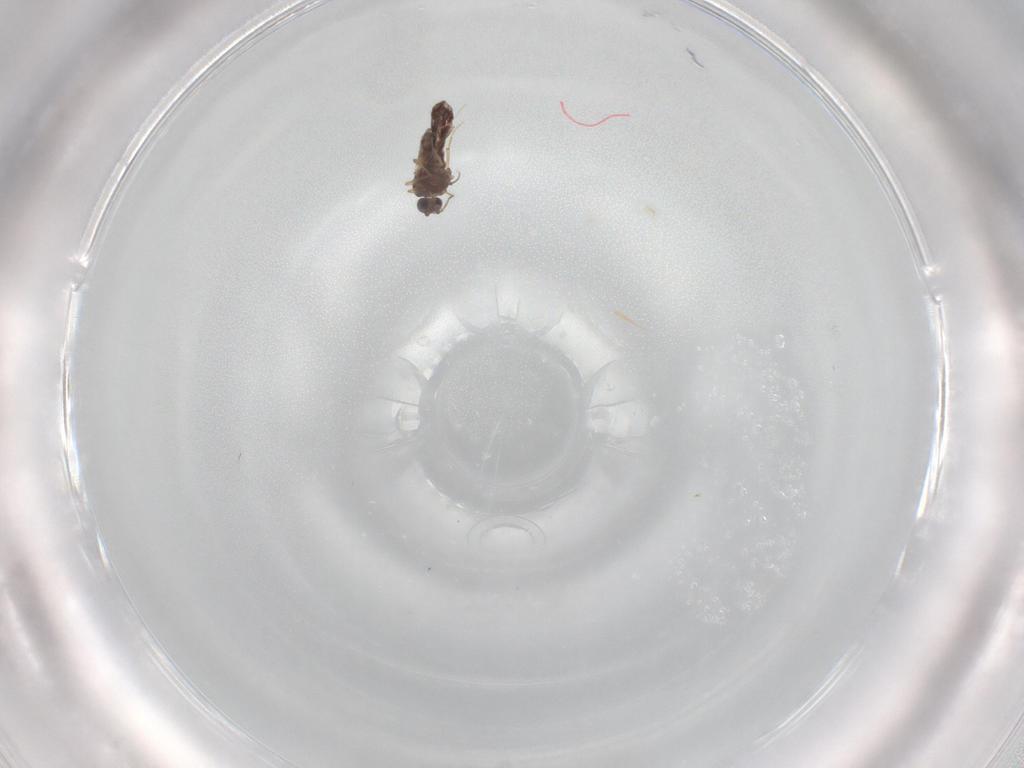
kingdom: Animalia
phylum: Arthropoda
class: Insecta
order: Diptera
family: Ceratopogonidae
